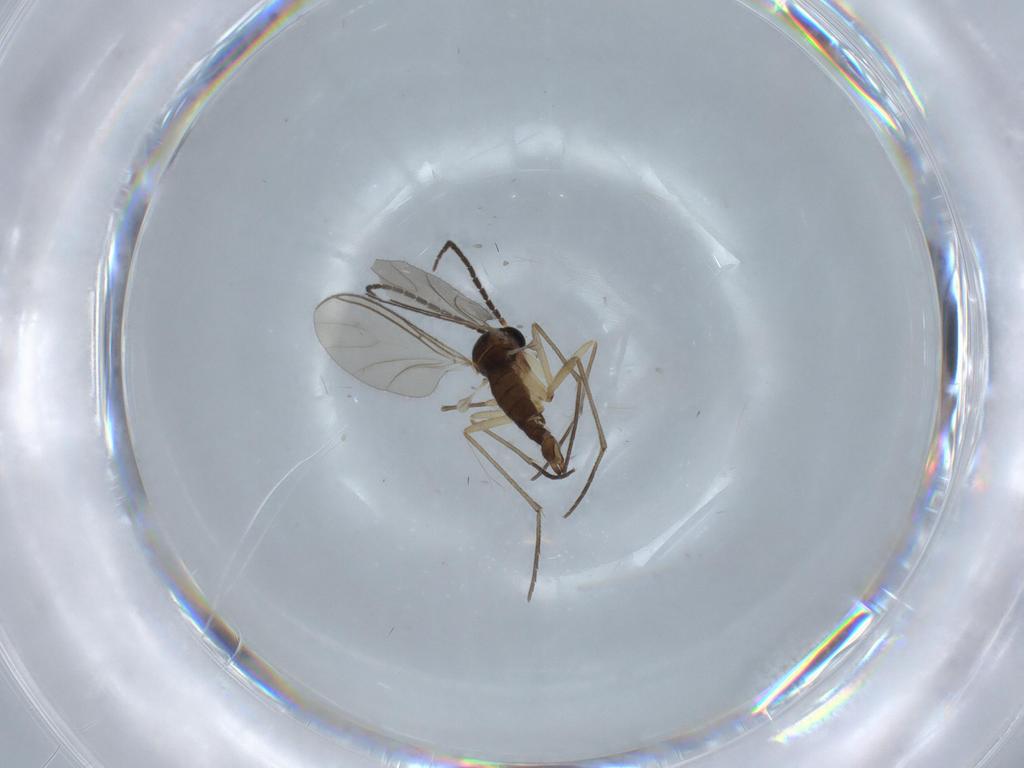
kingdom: Animalia
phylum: Arthropoda
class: Insecta
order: Diptera
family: Sciaridae
